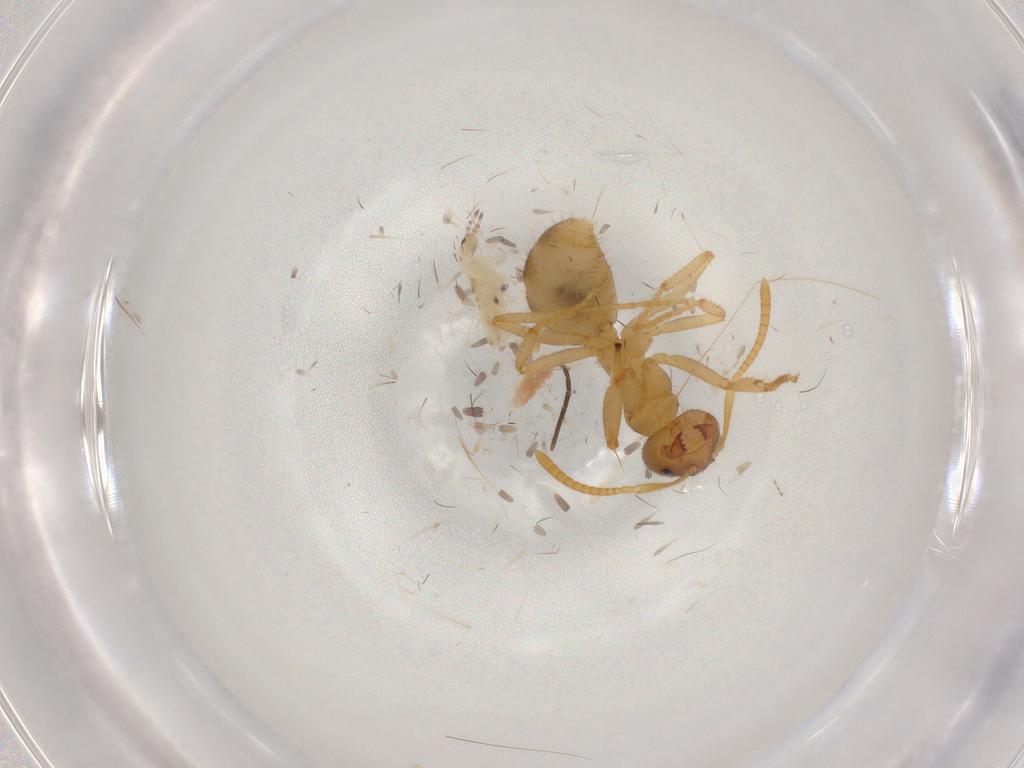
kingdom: Animalia
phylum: Arthropoda
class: Insecta
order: Hymenoptera
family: Formicidae
